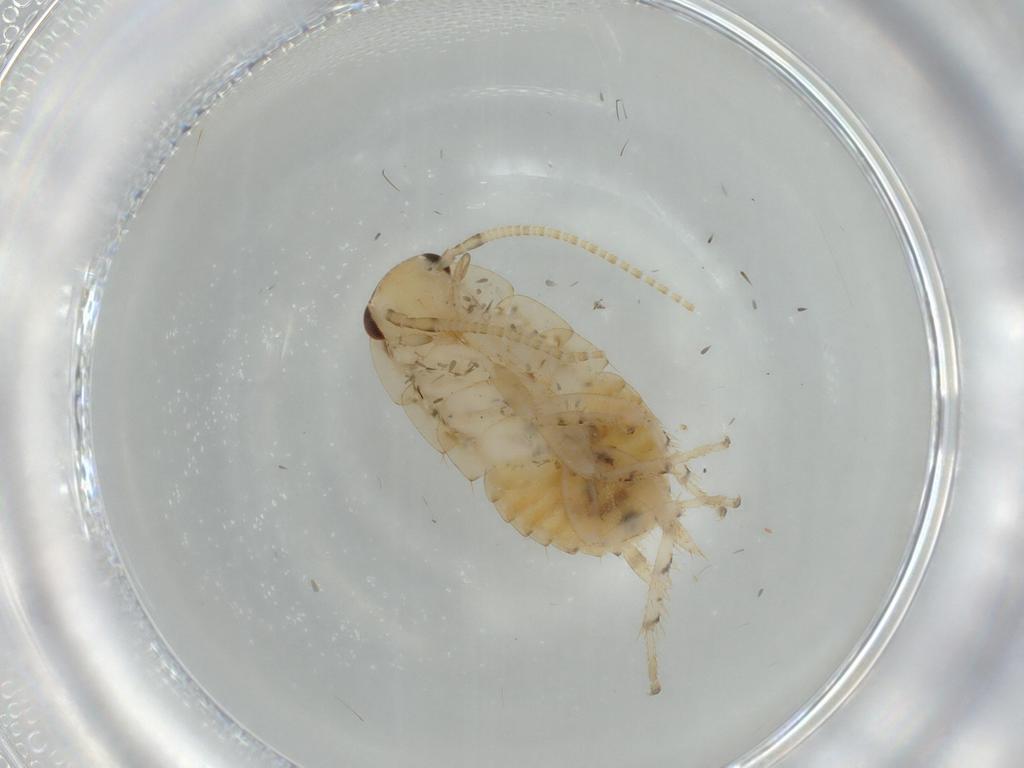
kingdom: Animalia
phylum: Arthropoda
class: Insecta
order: Blattodea
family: Ectobiidae
